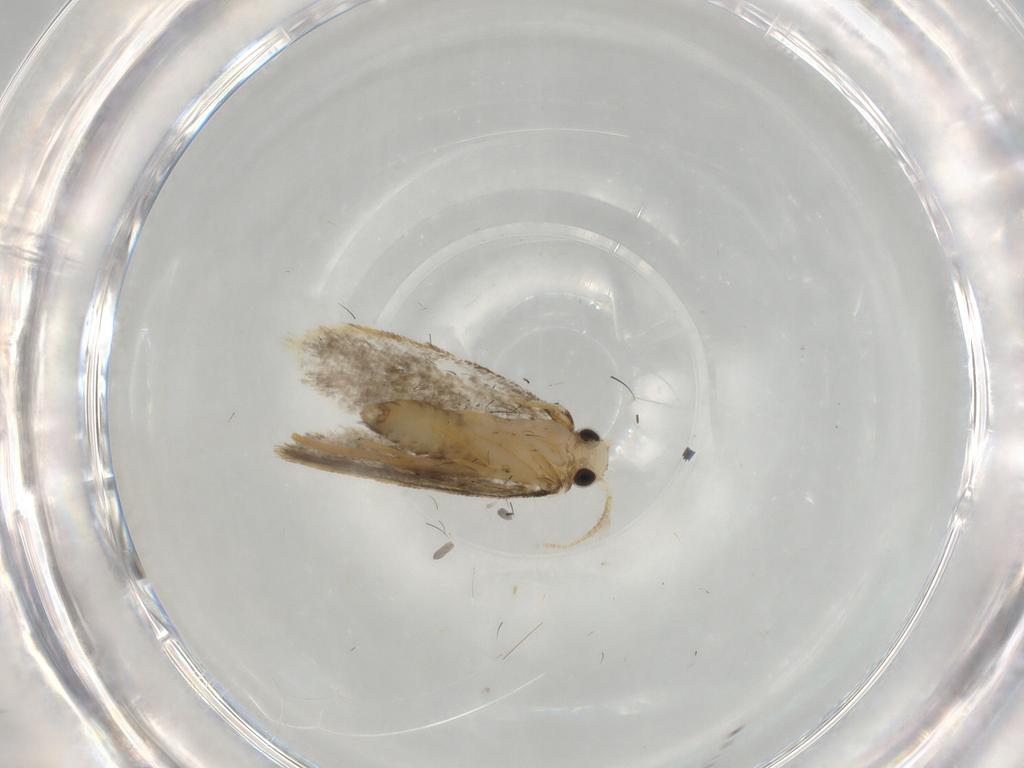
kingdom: Animalia
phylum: Arthropoda
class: Insecta
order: Lepidoptera
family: Psychidae
